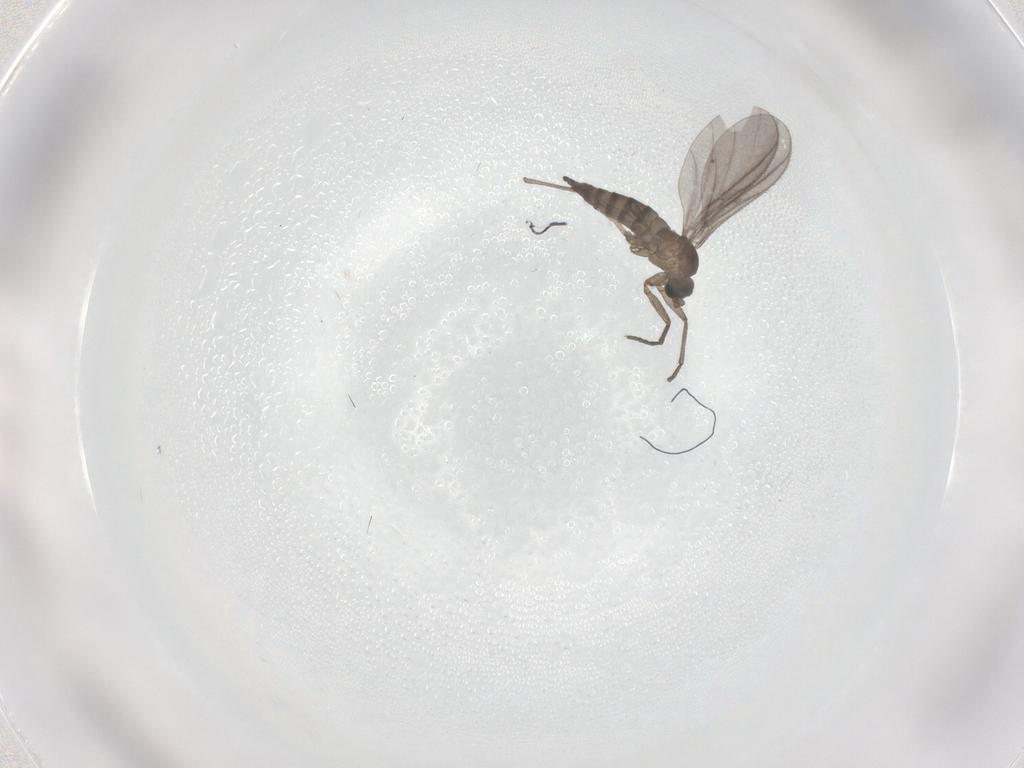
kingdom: Animalia
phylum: Arthropoda
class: Insecta
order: Diptera
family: Sciaridae
